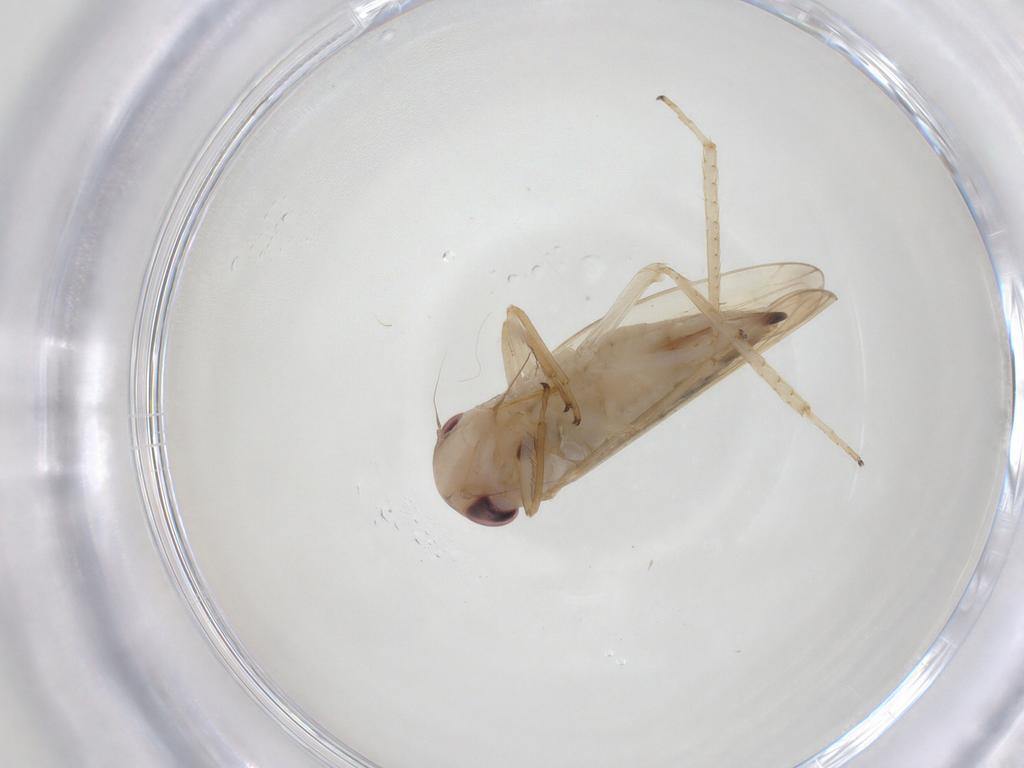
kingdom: Animalia
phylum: Arthropoda
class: Insecta
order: Hemiptera
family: Cicadellidae
